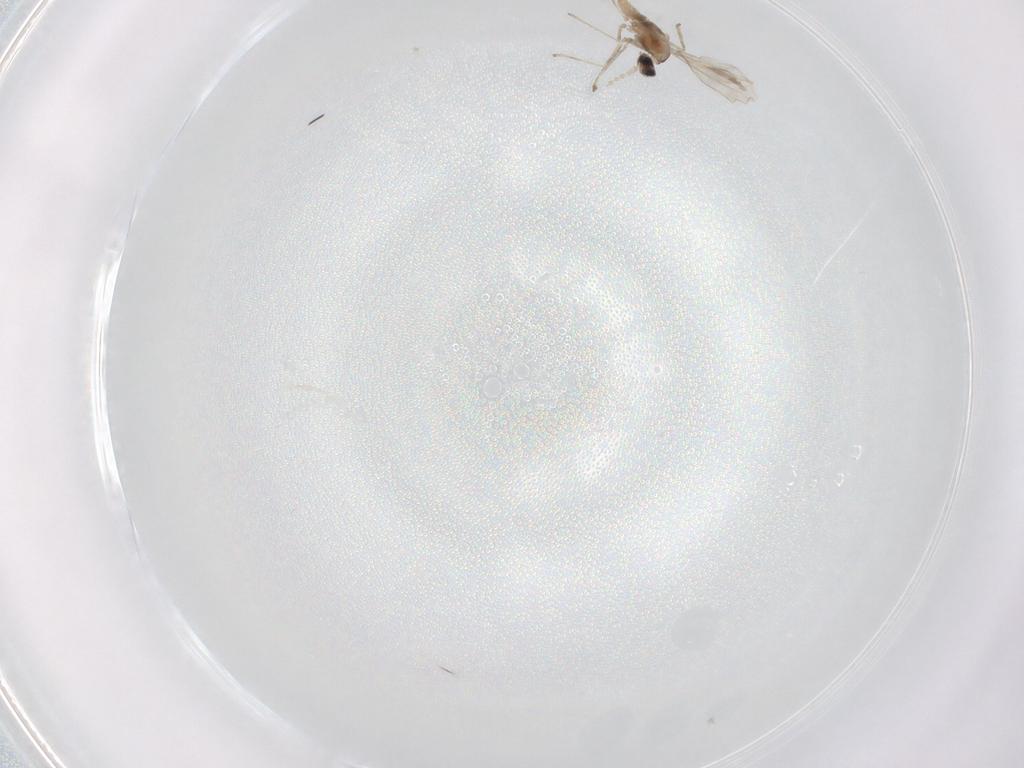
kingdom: Animalia
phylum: Arthropoda
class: Insecta
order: Diptera
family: Cecidomyiidae
